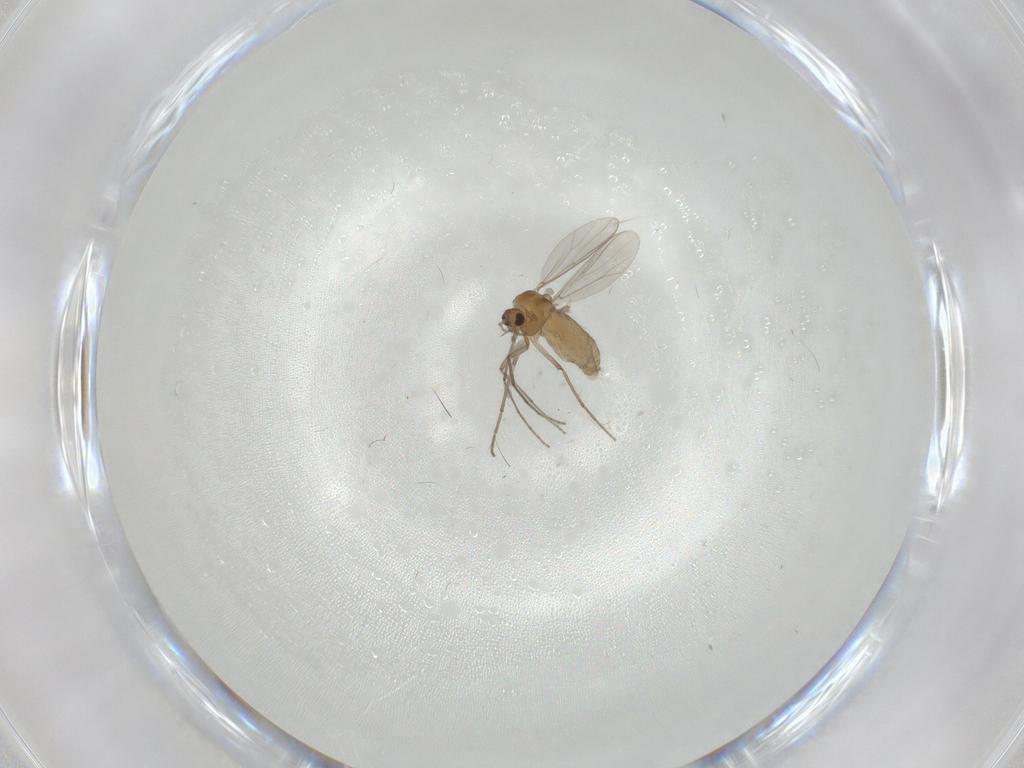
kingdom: Animalia
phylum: Arthropoda
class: Insecta
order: Diptera
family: Chironomidae
